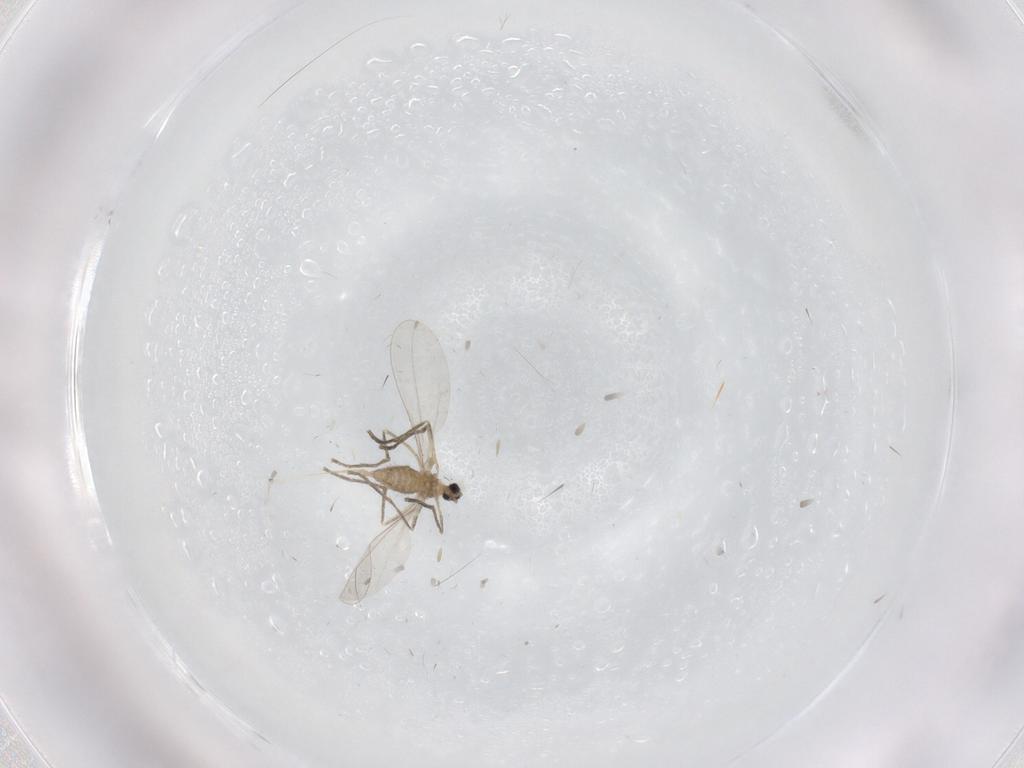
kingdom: Animalia
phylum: Arthropoda
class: Insecta
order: Diptera
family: Cecidomyiidae
